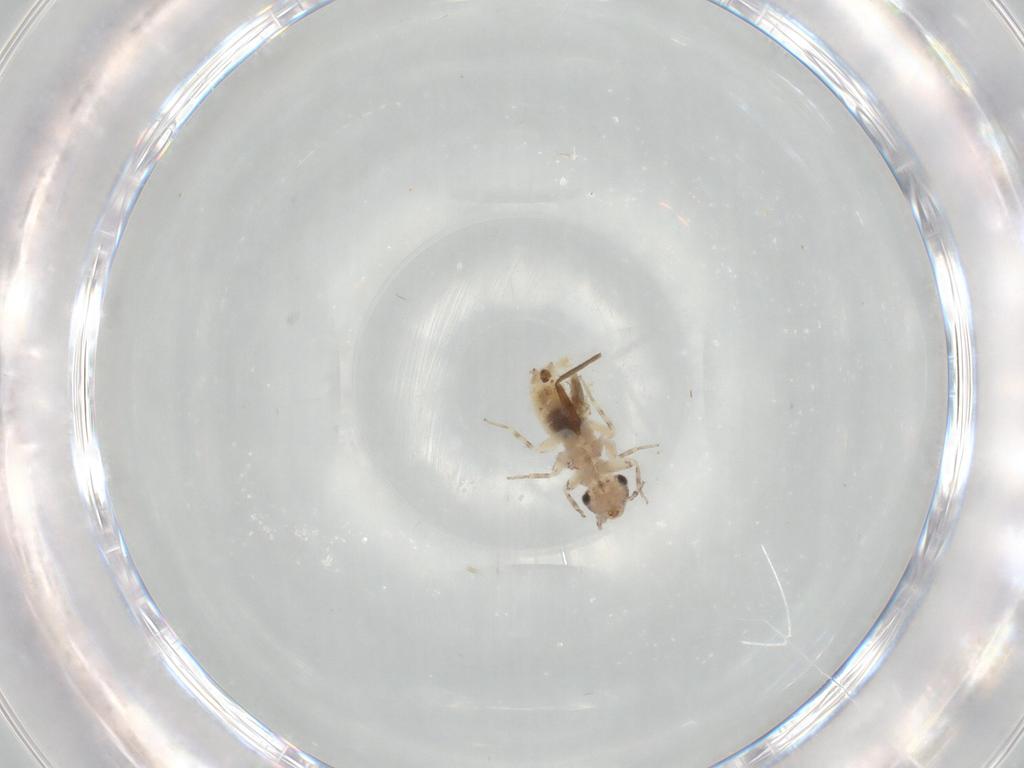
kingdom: Animalia
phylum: Arthropoda
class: Insecta
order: Psocodea
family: Lepidopsocidae
